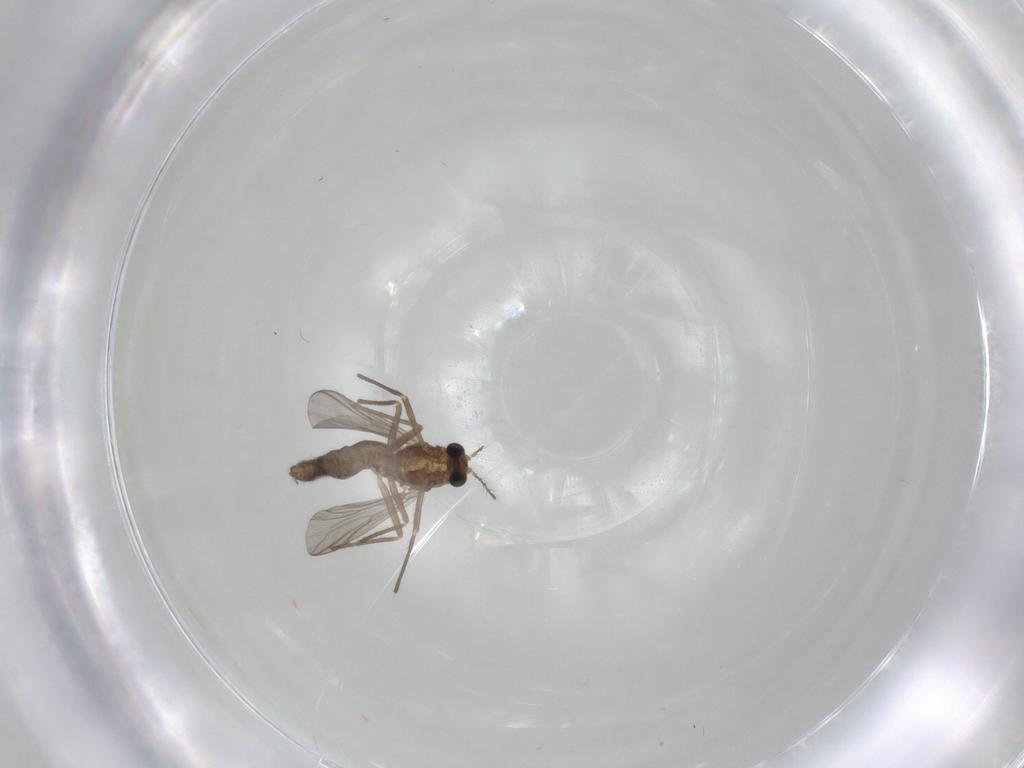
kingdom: Animalia
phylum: Arthropoda
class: Insecta
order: Diptera
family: Chironomidae
